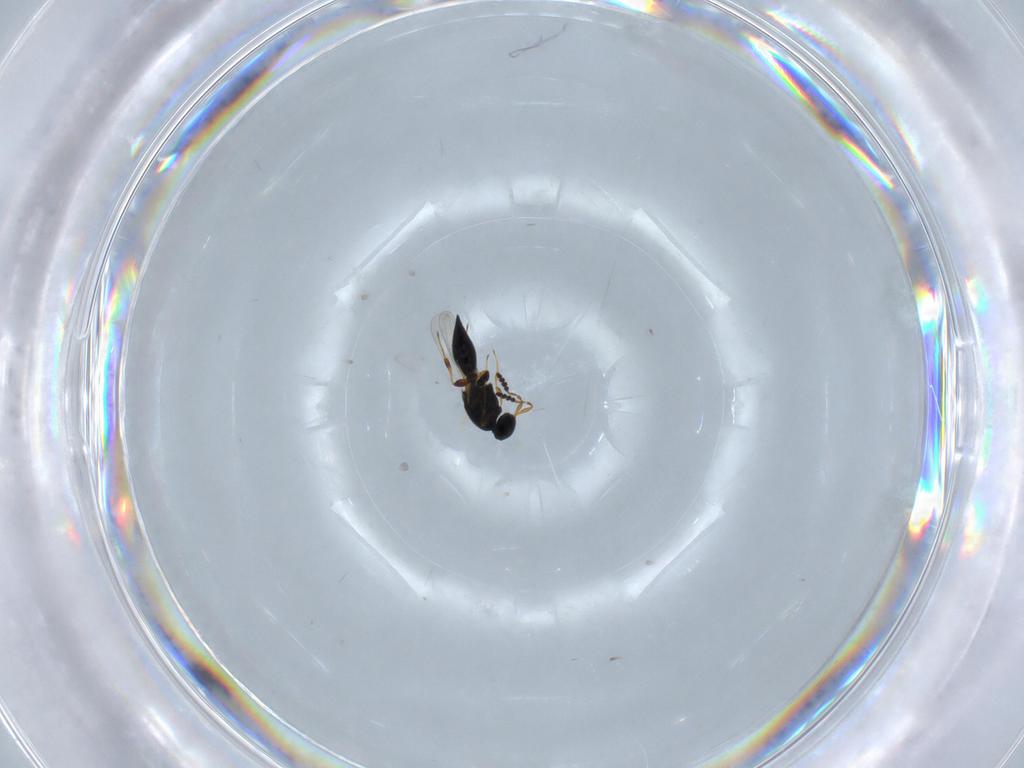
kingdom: Animalia
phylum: Arthropoda
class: Insecta
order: Hymenoptera
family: Platygastridae
